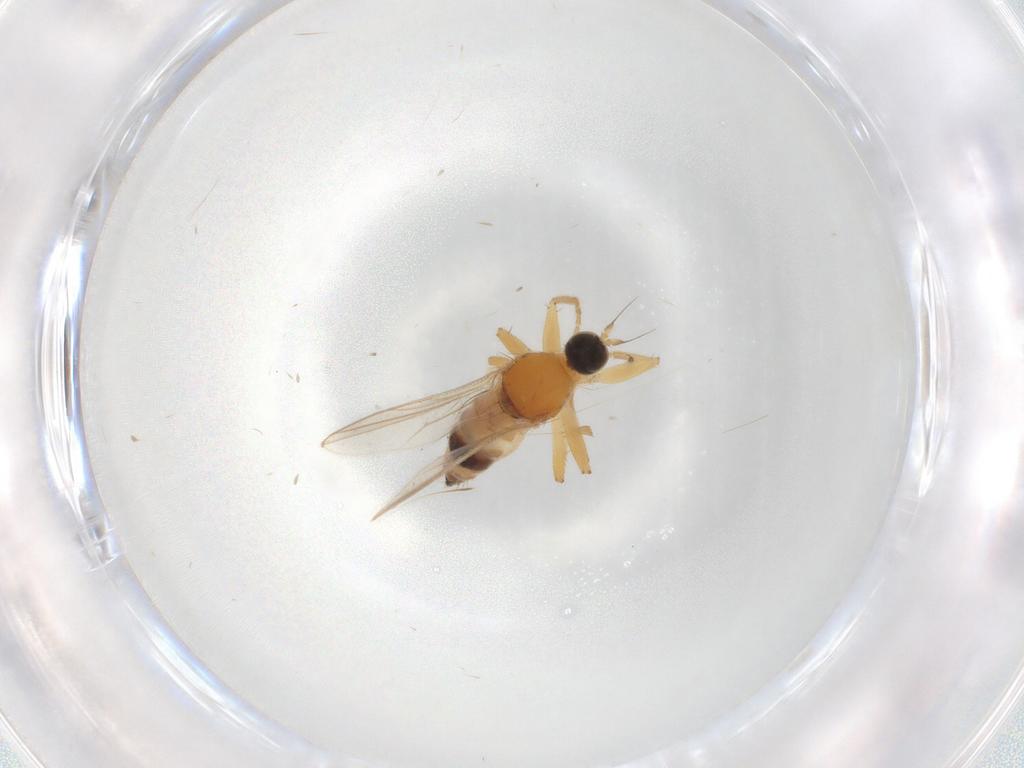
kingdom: Animalia
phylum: Arthropoda
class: Insecta
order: Diptera
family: Hybotidae
